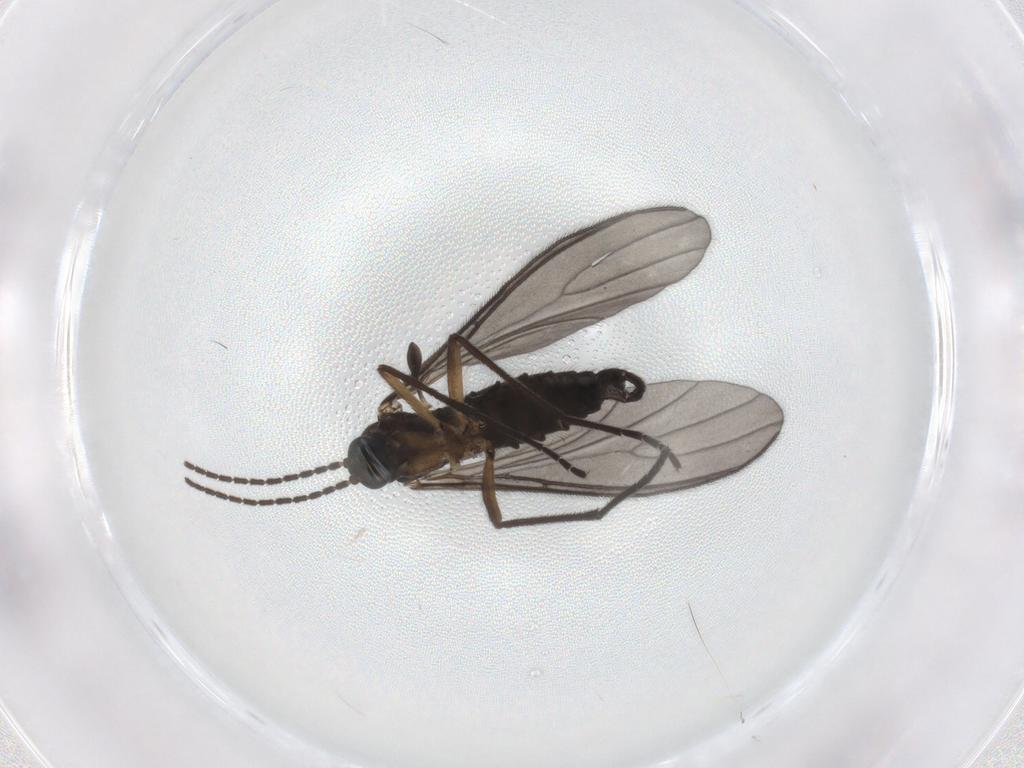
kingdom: Animalia
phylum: Arthropoda
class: Insecta
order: Diptera
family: Sciaridae
